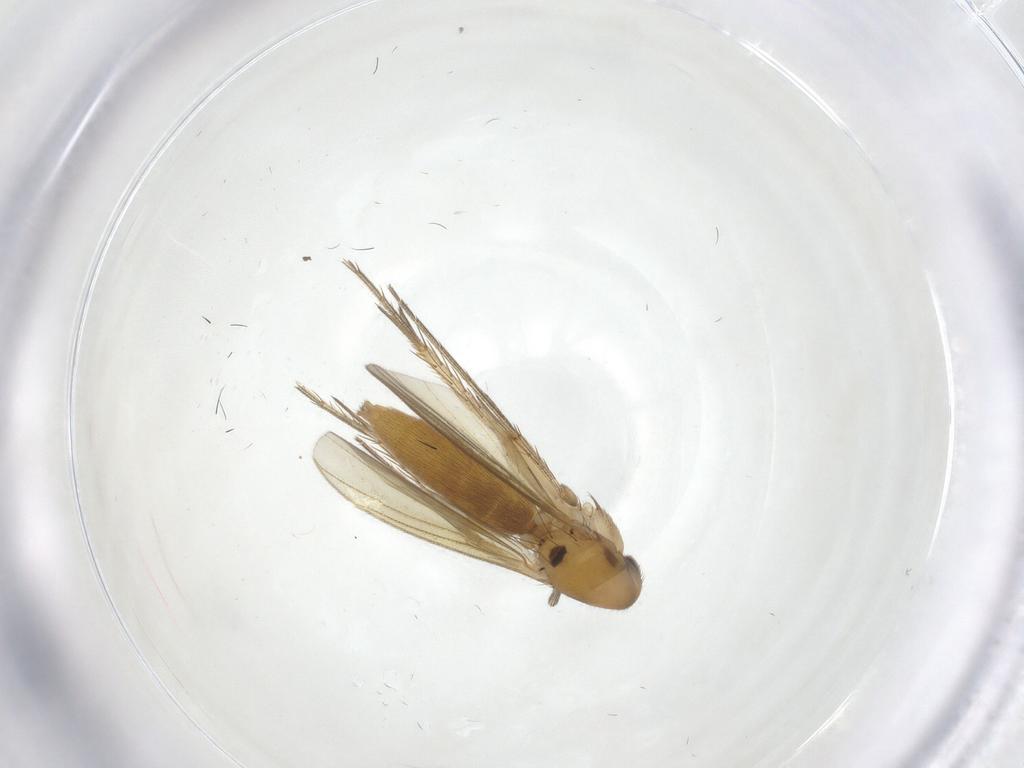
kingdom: Animalia
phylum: Arthropoda
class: Insecta
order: Diptera
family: Mycetophilidae
